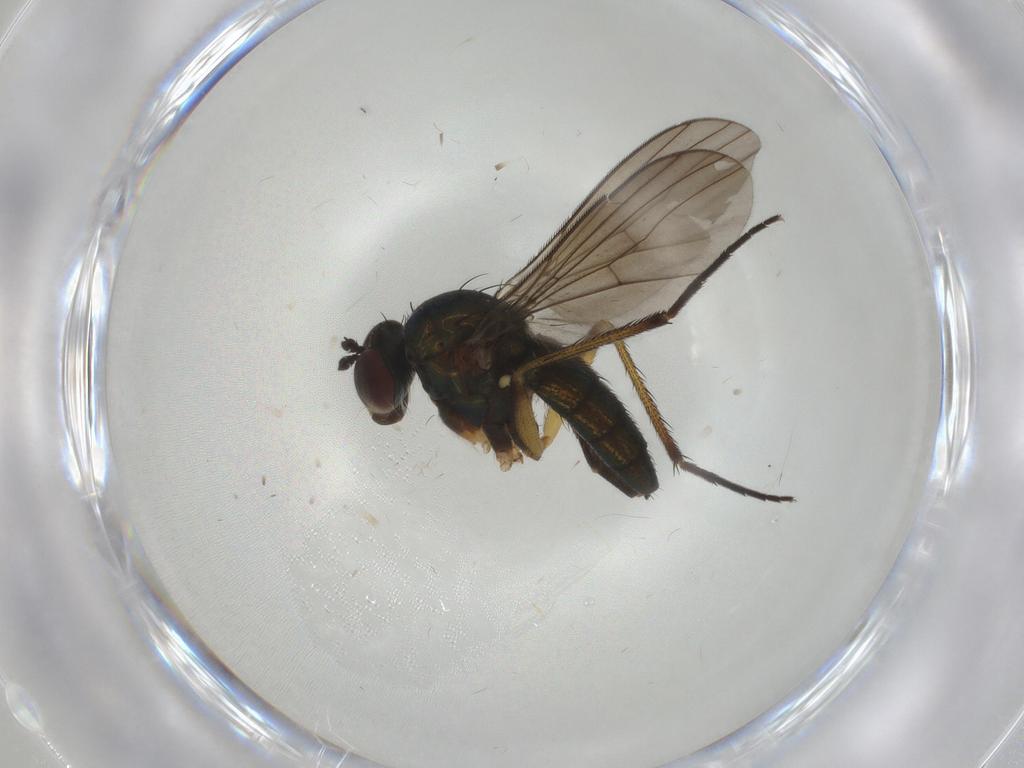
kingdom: Animalia
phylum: Arthropoda
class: Insecta
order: Diptera
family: Dolichopodidae
